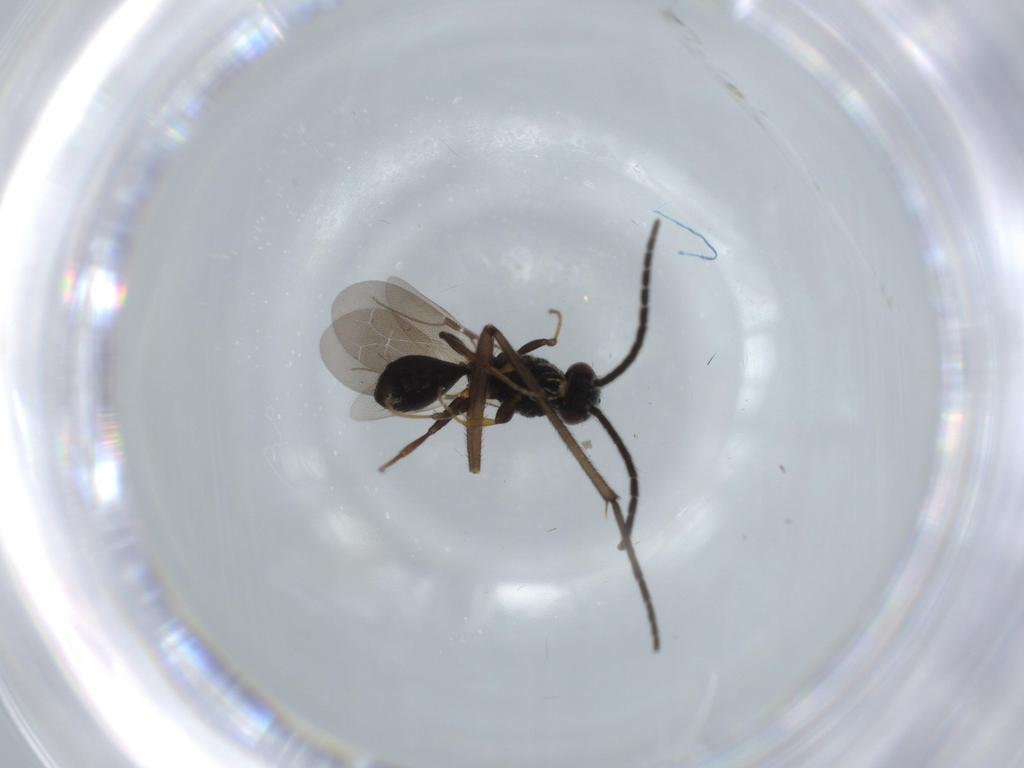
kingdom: Animalia
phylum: Arthropoda
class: Insecta
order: Hymenoptera
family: Bethylidae
